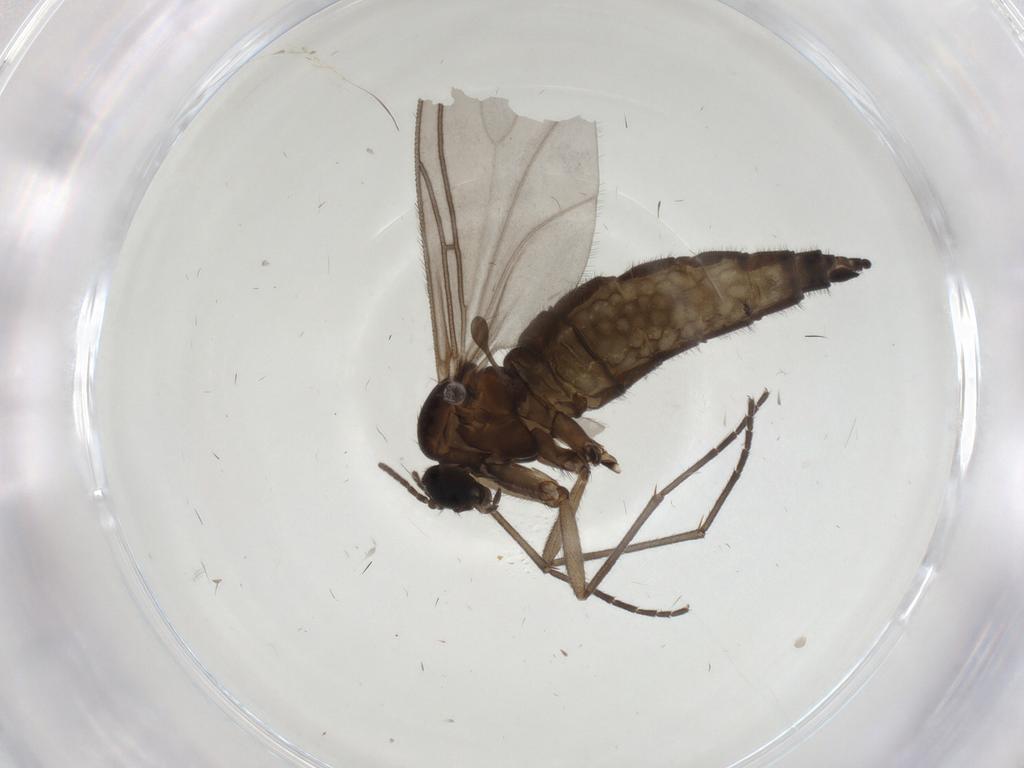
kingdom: Animalia
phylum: Arthropoda
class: Insecta
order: Diptera
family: Sciaridae
